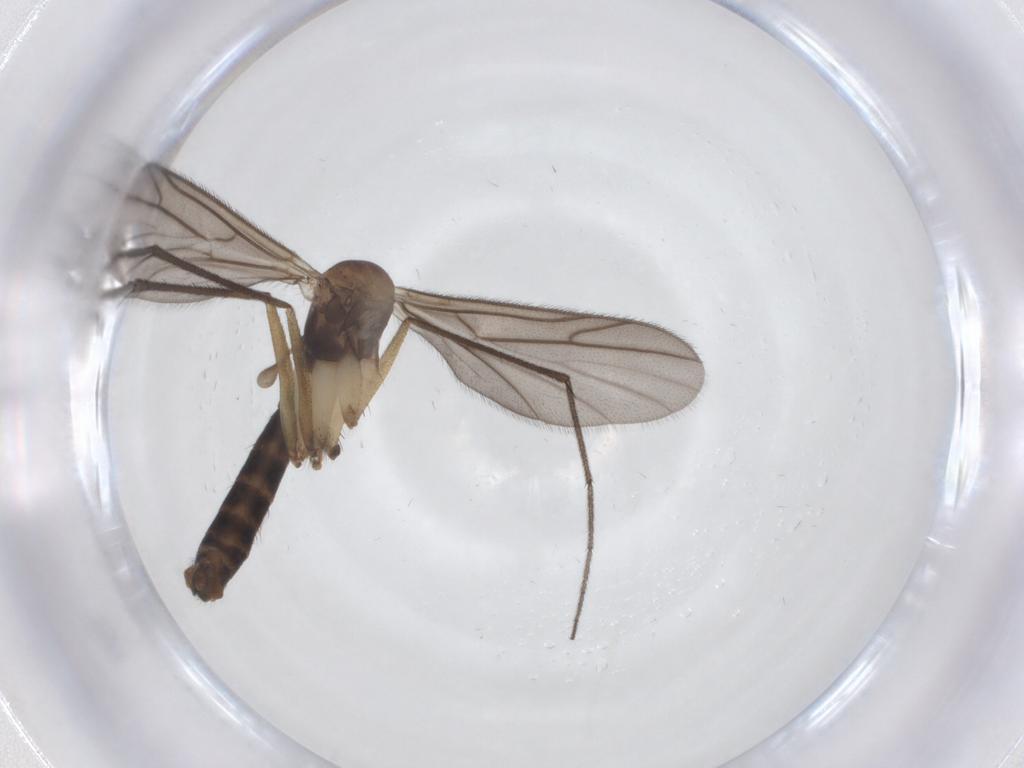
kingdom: Animalia
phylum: Arthropoda
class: Insecta
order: Diptera
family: Ditomyiidae
